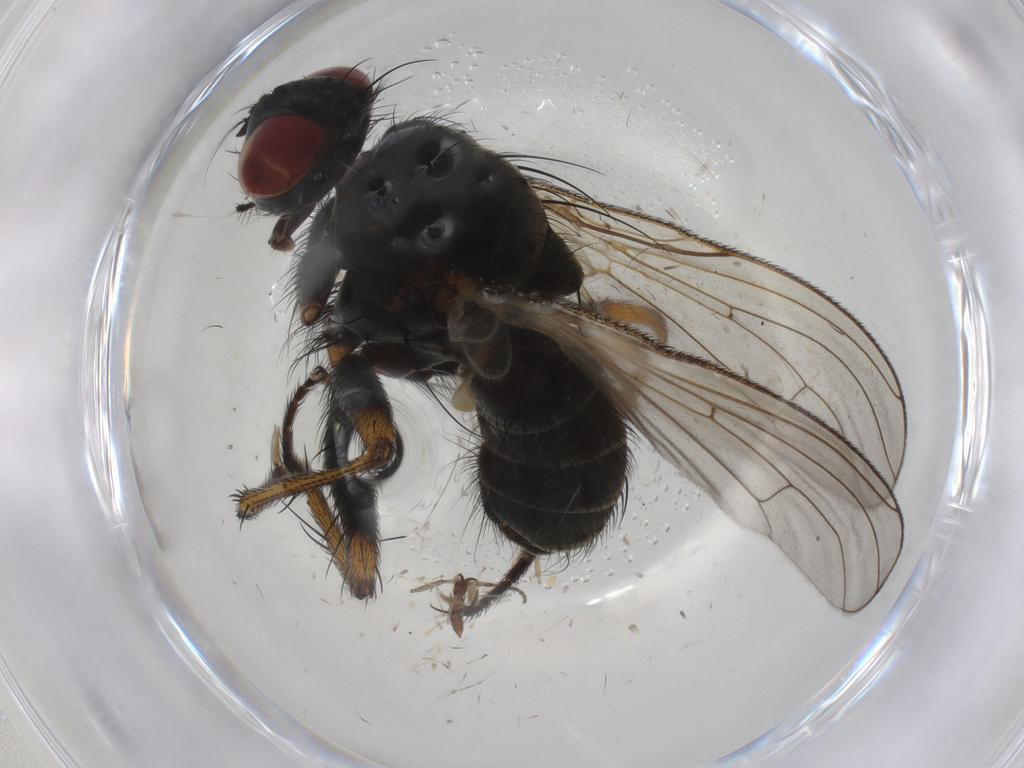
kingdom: Animalia
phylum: Arthropoda
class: Insecta
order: Diptera
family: Muscidae
